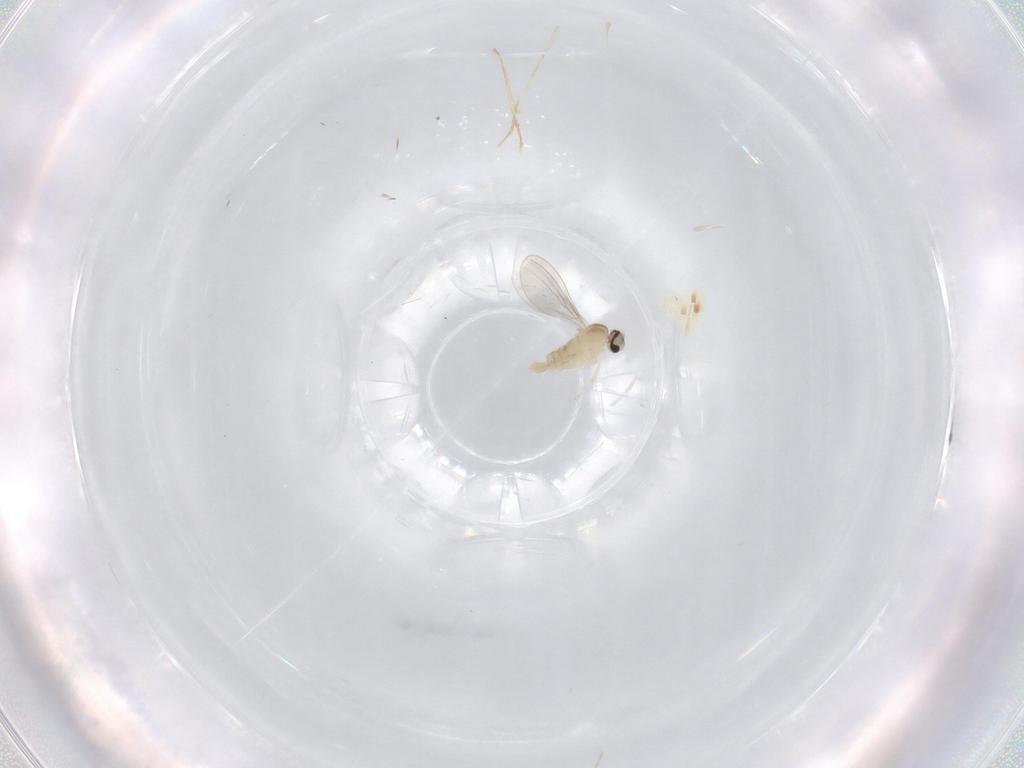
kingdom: Animalia
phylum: Arthropoda
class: Insecta
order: Diptera
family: Cecidomyiidae
